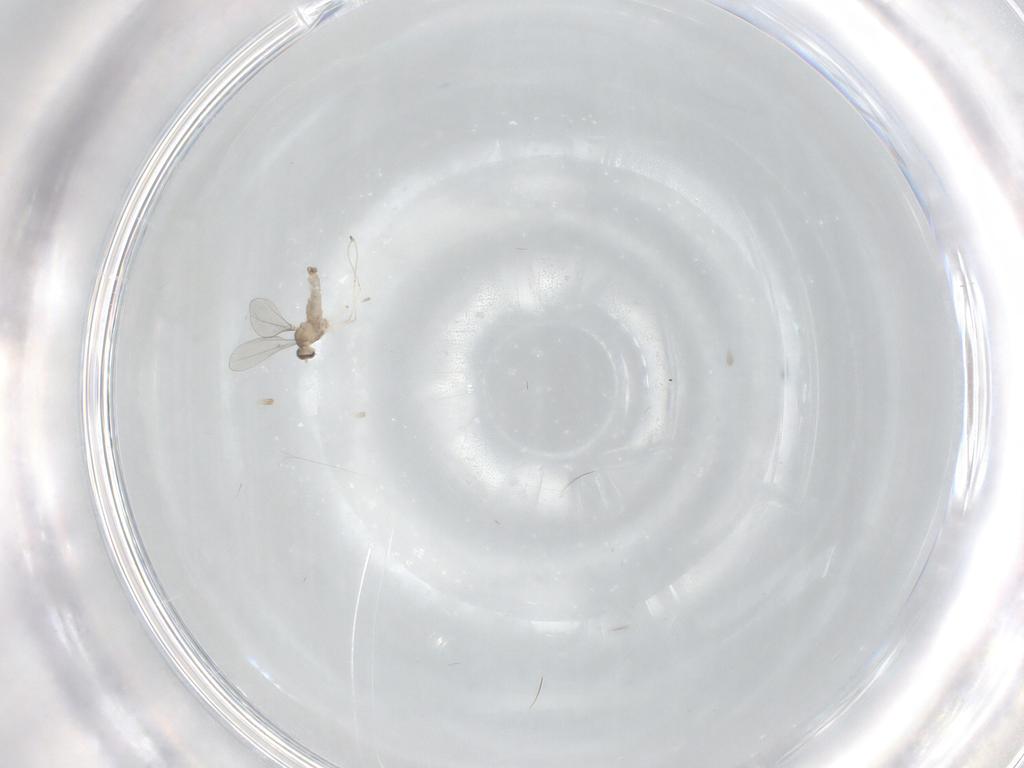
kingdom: Animalia
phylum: Arthropoda
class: Insecta
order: Diptera
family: Cecidomyiidae
